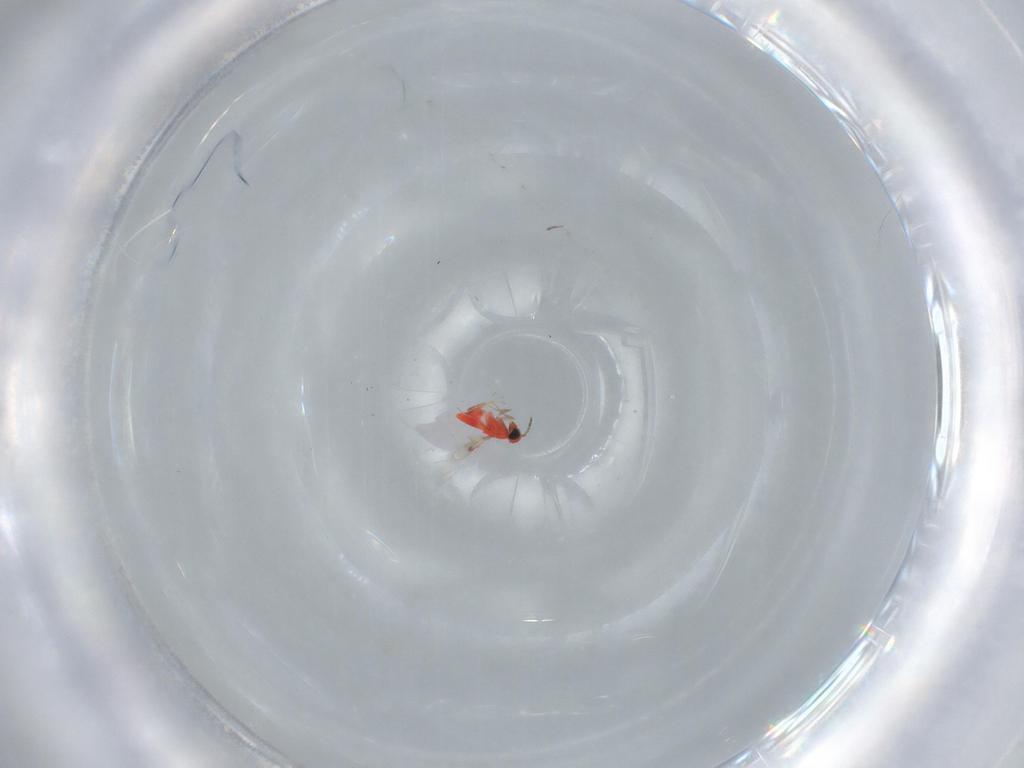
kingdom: Animalia
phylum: Arthropoda
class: Insecta
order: Hymenoptera
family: Trichogrammatidae
